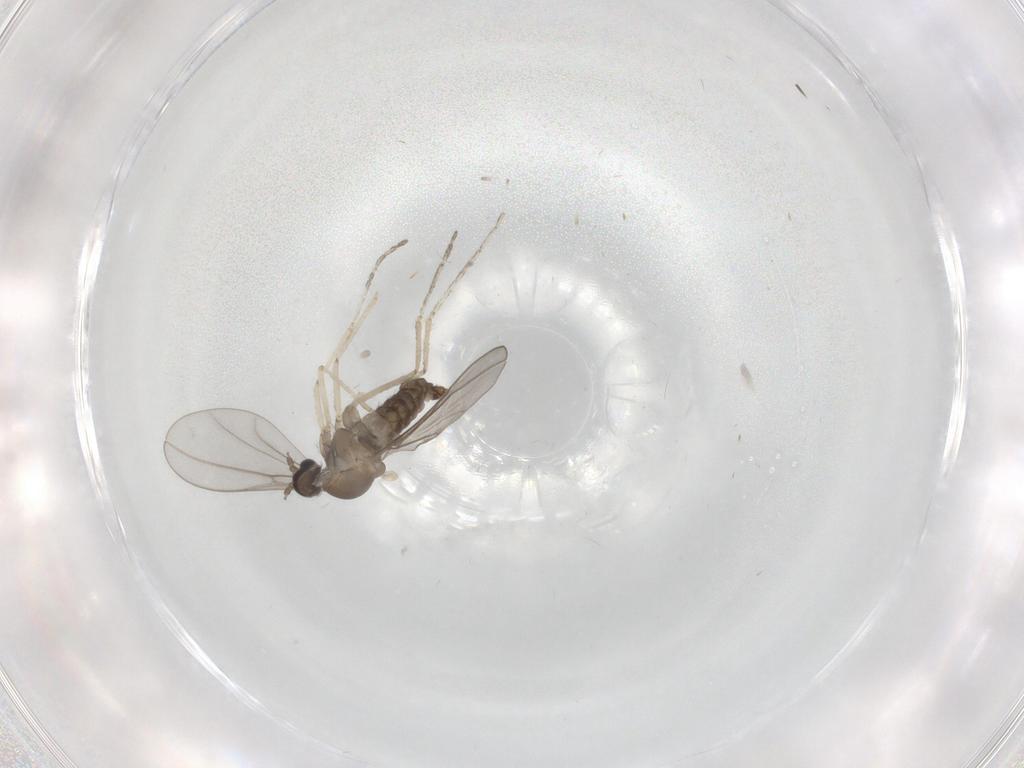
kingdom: Animalia
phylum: Arthropoda
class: Insecta
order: Diptera
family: Cecidomyiidae
